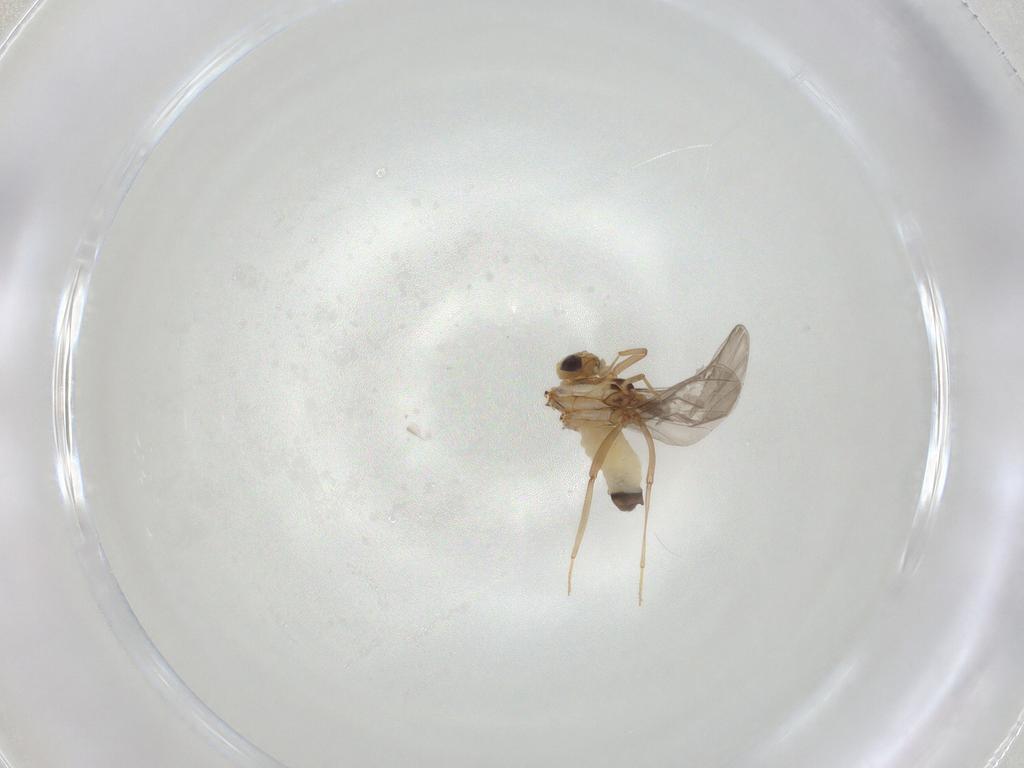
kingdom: Animalia
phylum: Arthropoda
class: Insecta
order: Neuroptera
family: Coniopterygidae
